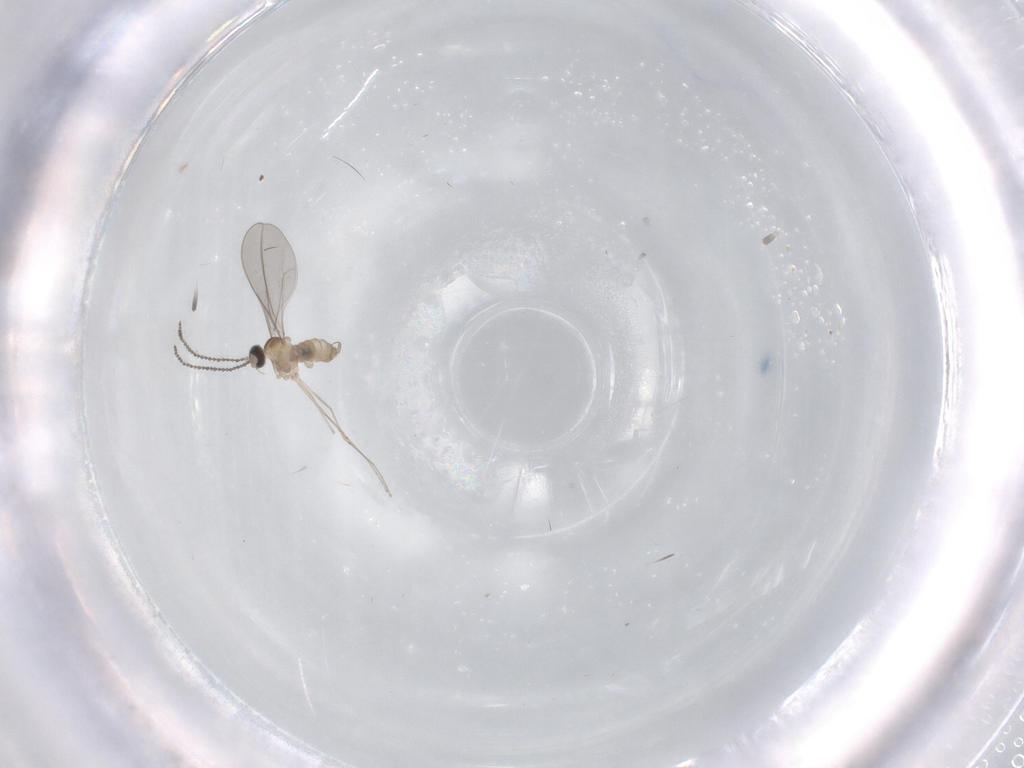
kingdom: Animalia
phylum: Arthropoda
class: Insecta
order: Diptera
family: Cecidomyiidae
